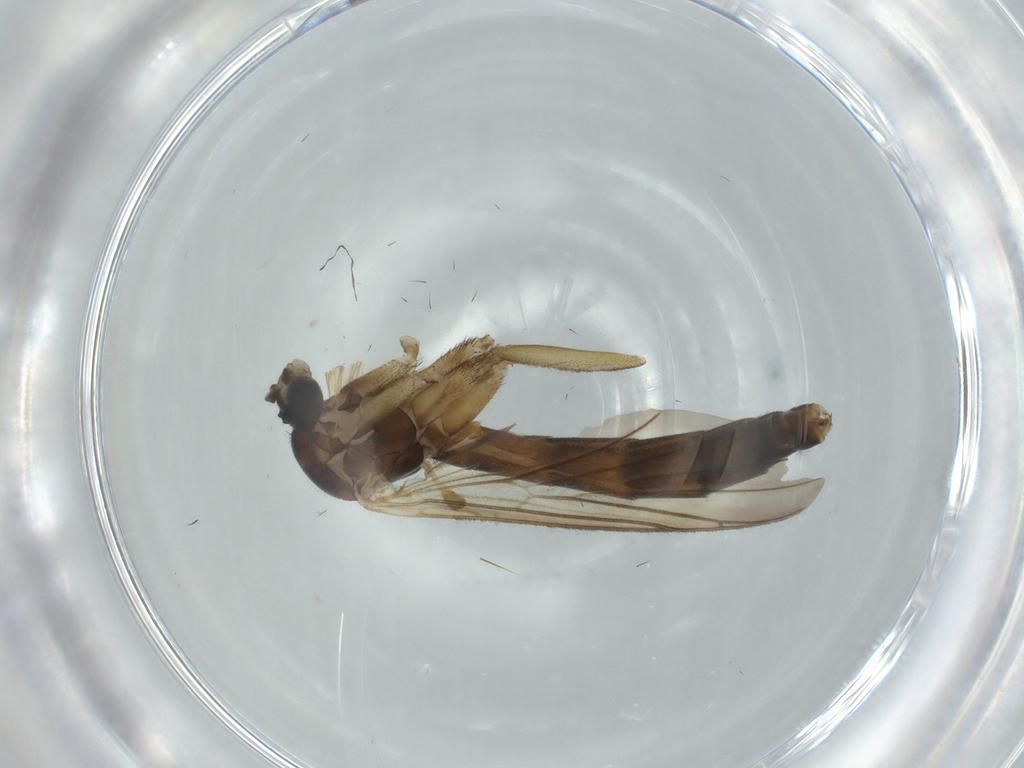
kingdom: Animalia
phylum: Arthropoda
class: Insecta
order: Diptera
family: Keroplatidae
